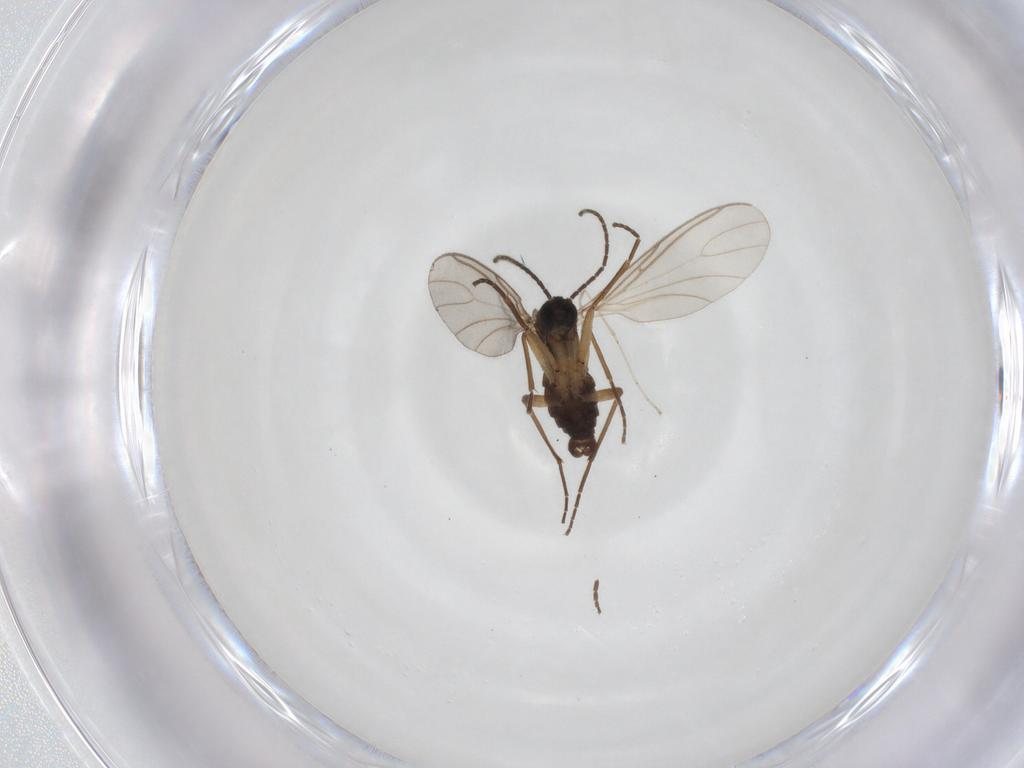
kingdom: Animalia
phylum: Arthropoda
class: Insecta
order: Diptera
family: Sciaridae
